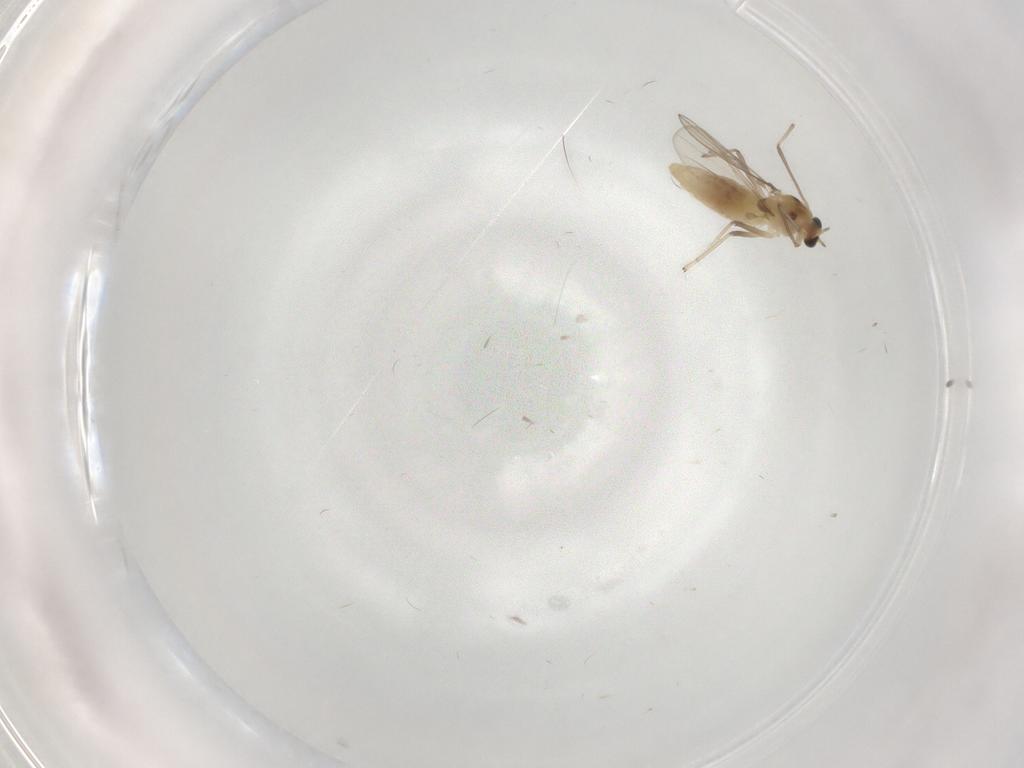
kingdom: Animalia
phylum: Arthropoda
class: Insecta
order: Diptera
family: Chironomidae
